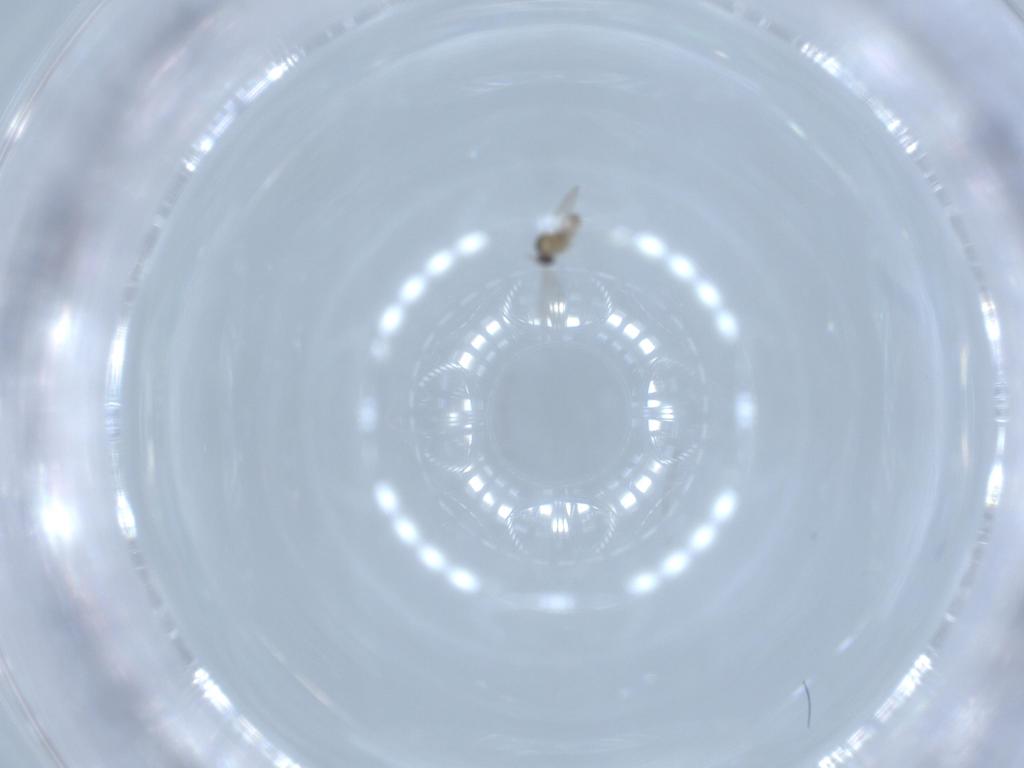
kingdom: Animalia
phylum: Arthropoda
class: Insecta
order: Diptera
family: Cecidomyiidae
